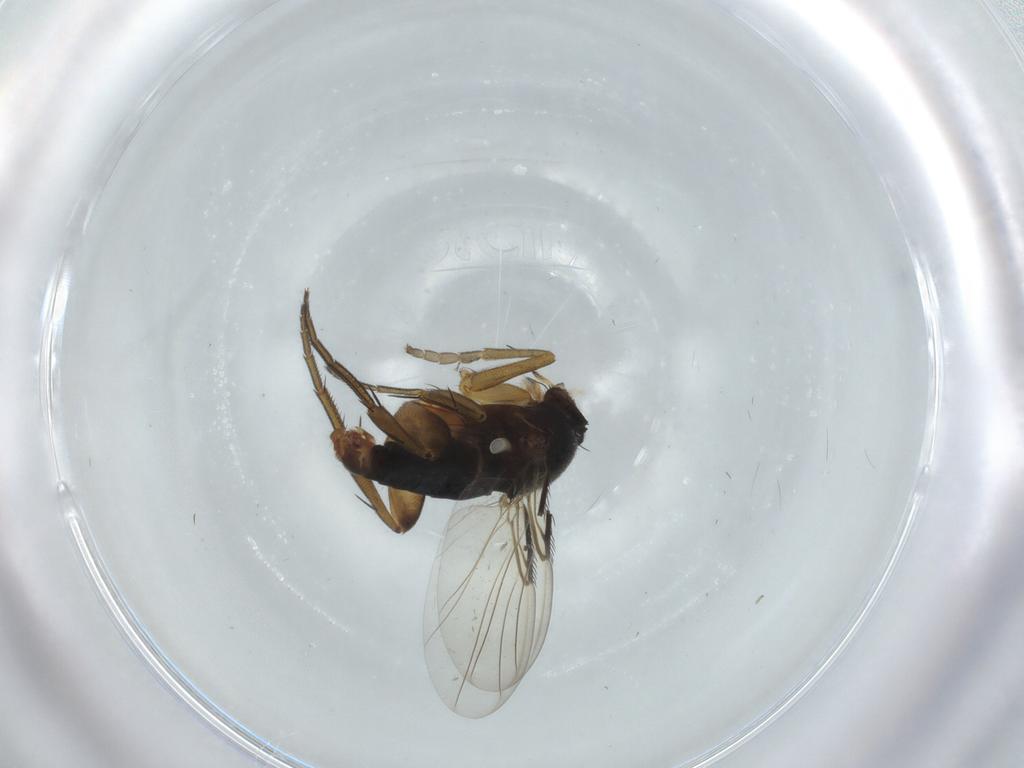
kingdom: Animalia
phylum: Arthropoda
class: Insecta
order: Diptera
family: Phoridae
